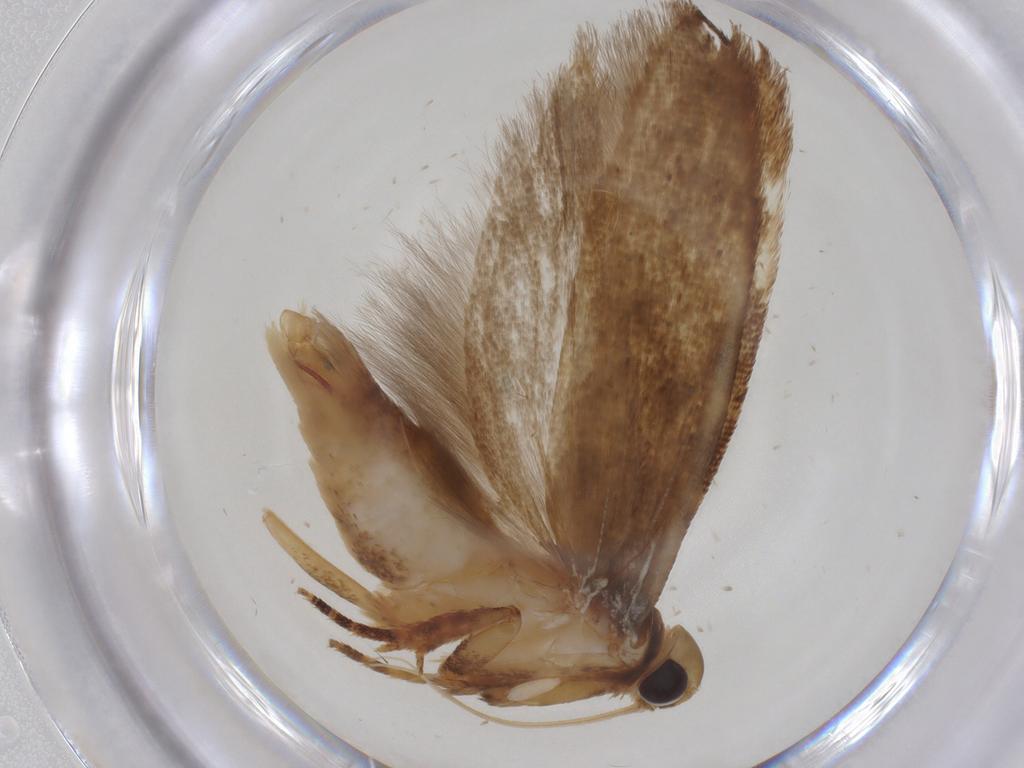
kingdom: Animalia
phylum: Arthropoda
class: Insecta
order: Lepidoptera
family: Gelechiidae
